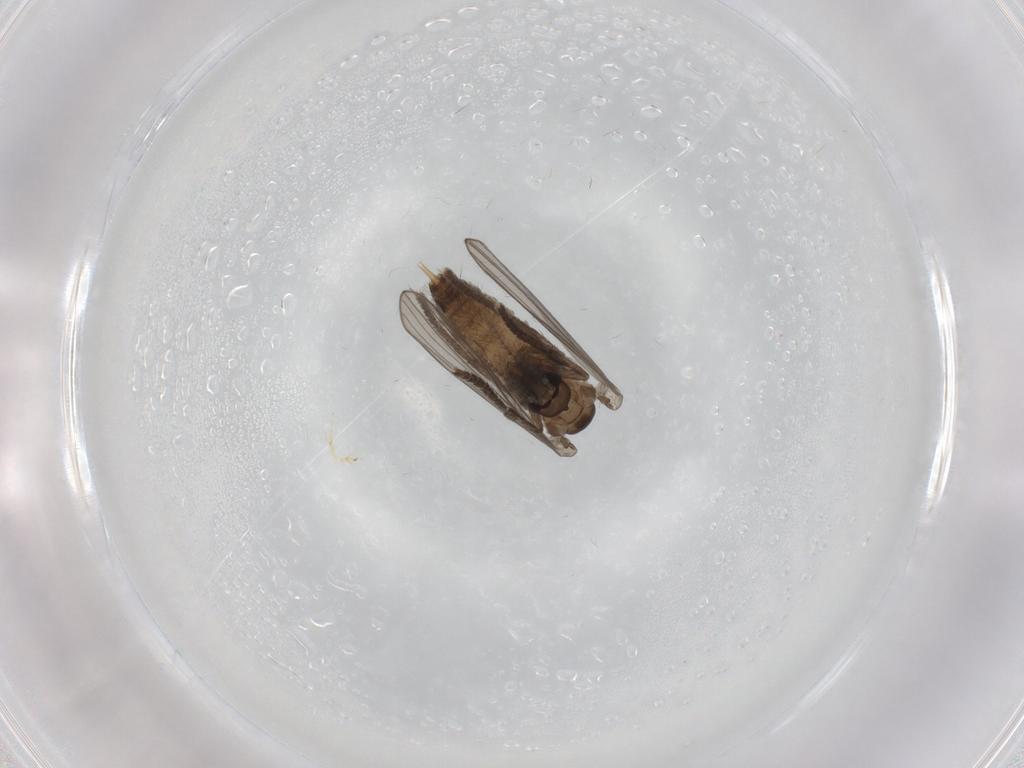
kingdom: Animalia
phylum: Arthropoda
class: Insecta
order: Diptera
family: Psychodidae
